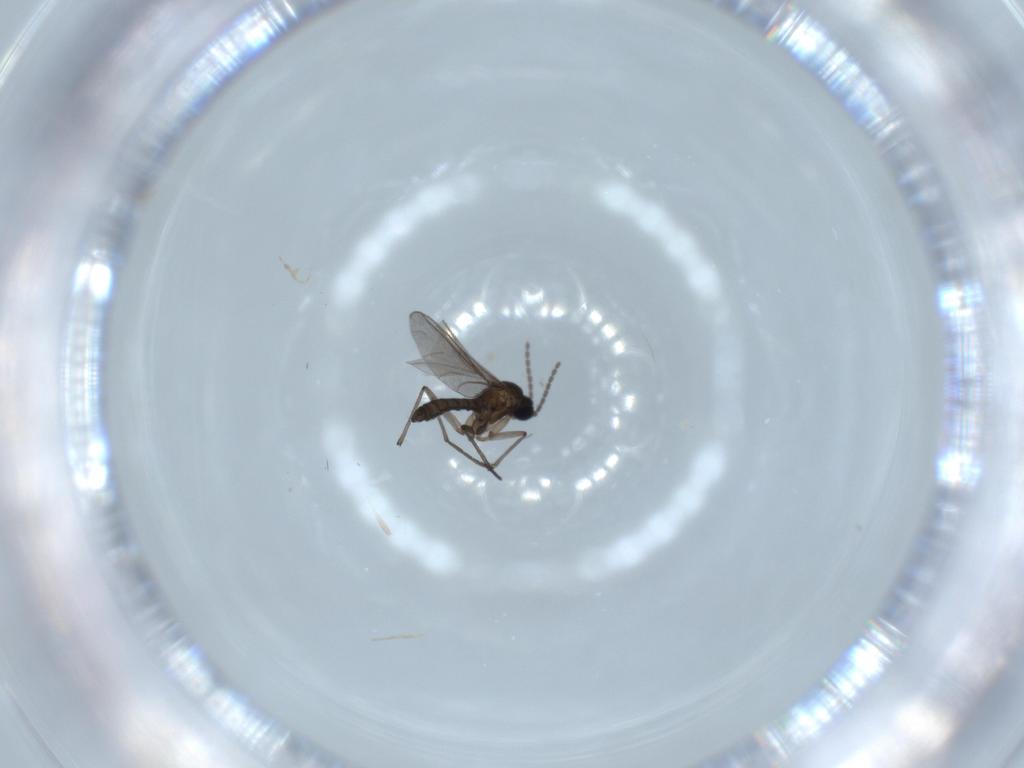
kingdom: Animalia
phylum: Arthropoda
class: Insecta
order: Diptera
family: Sciaridae
